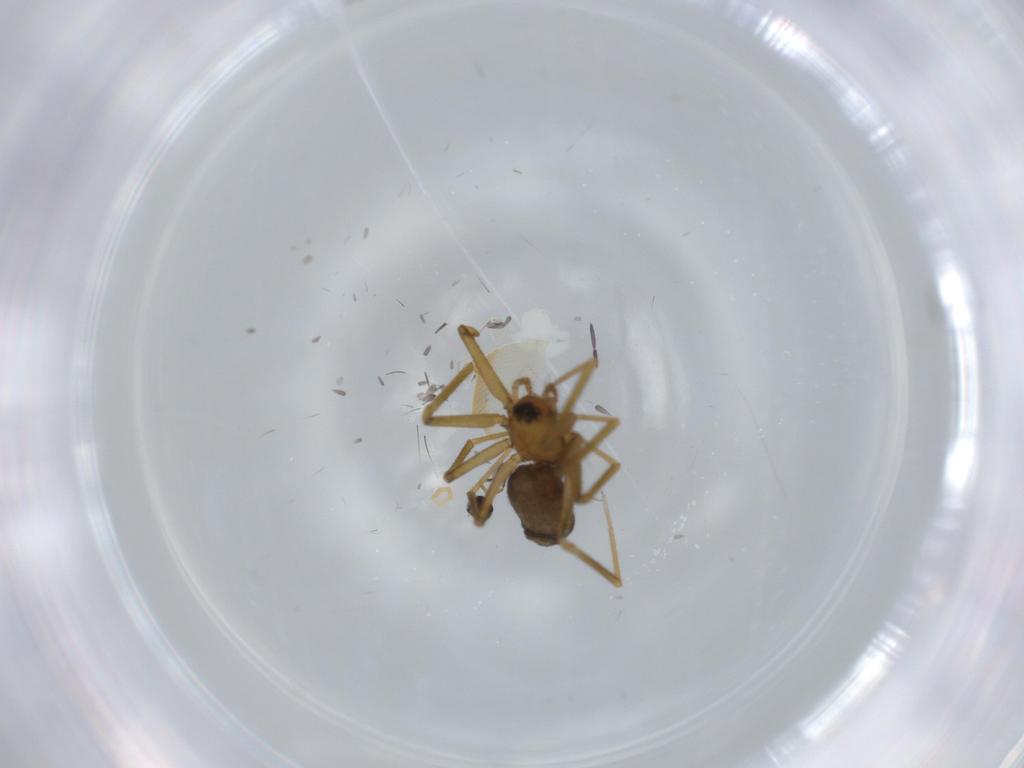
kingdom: Animalia
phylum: Arthropoda
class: Arachnida
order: Araneae
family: Linyphiidae
